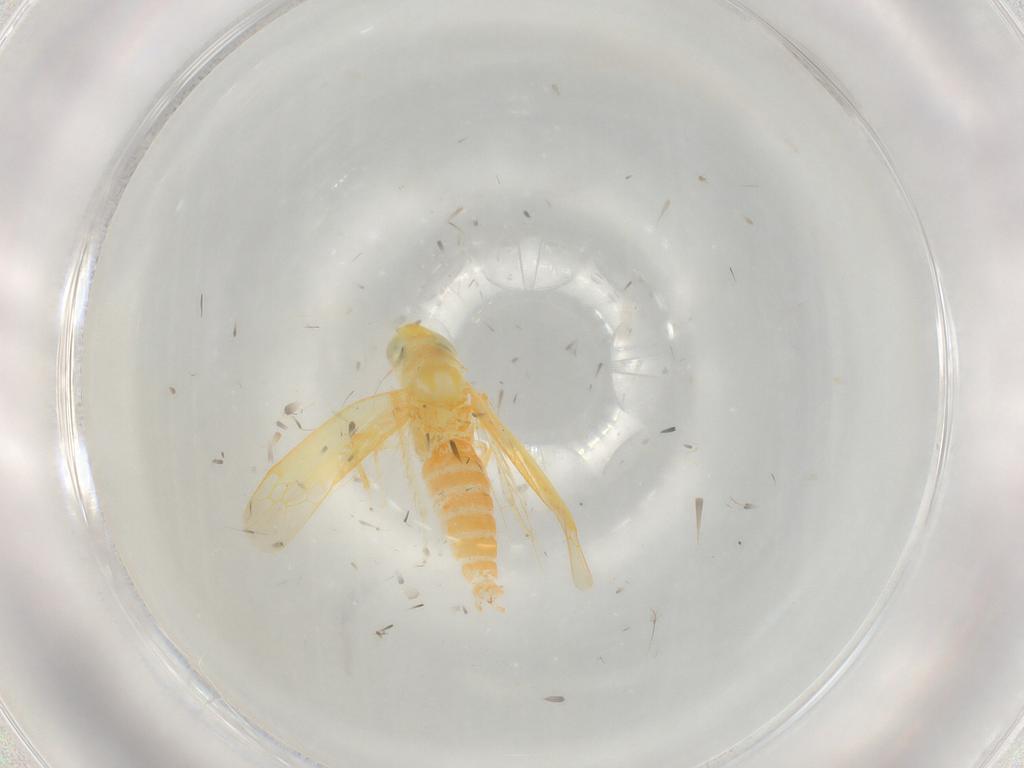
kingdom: Animalia
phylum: Arthropoda
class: Insecta
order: Hemiptera
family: Cicadellidae
